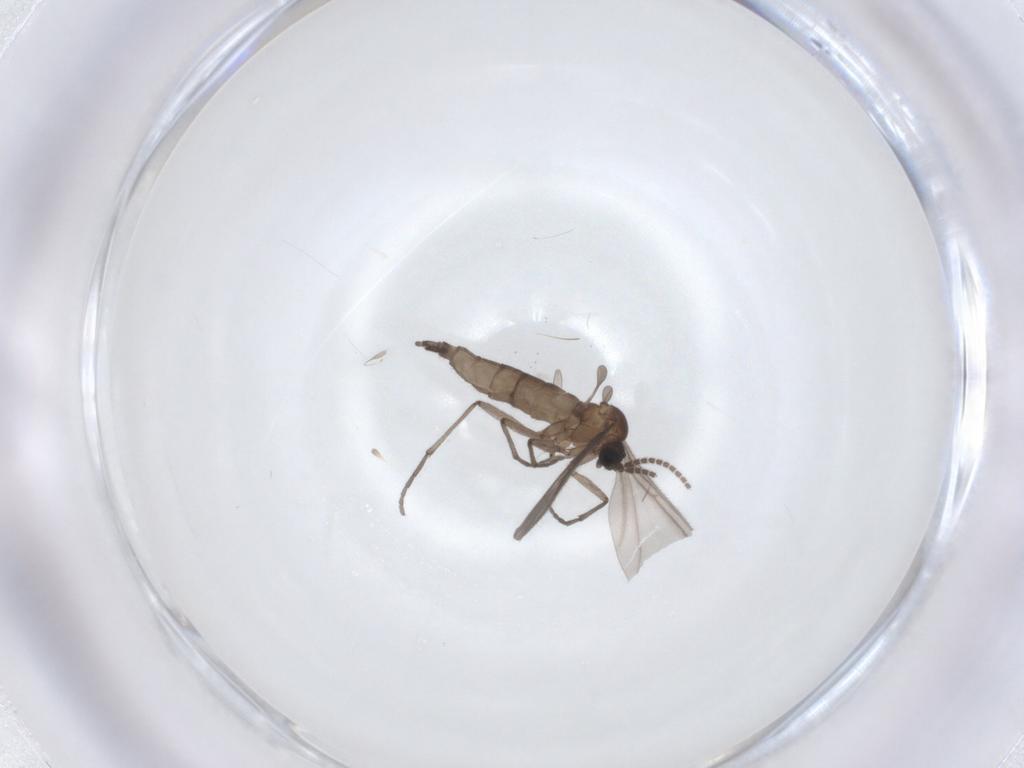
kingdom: Animalia
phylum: Arthropoda
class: Insecta
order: Diptera
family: Sciaridae
